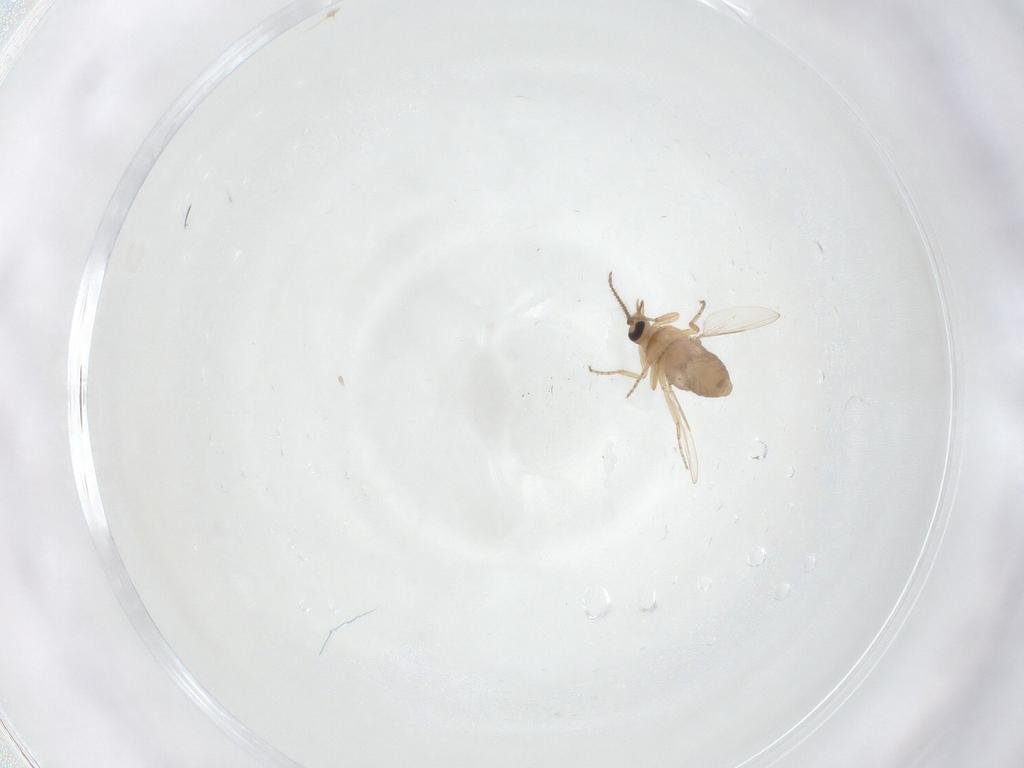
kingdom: Animalia
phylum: Arthropoda
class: Insecta
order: Diptera
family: Ceratopogonidae
